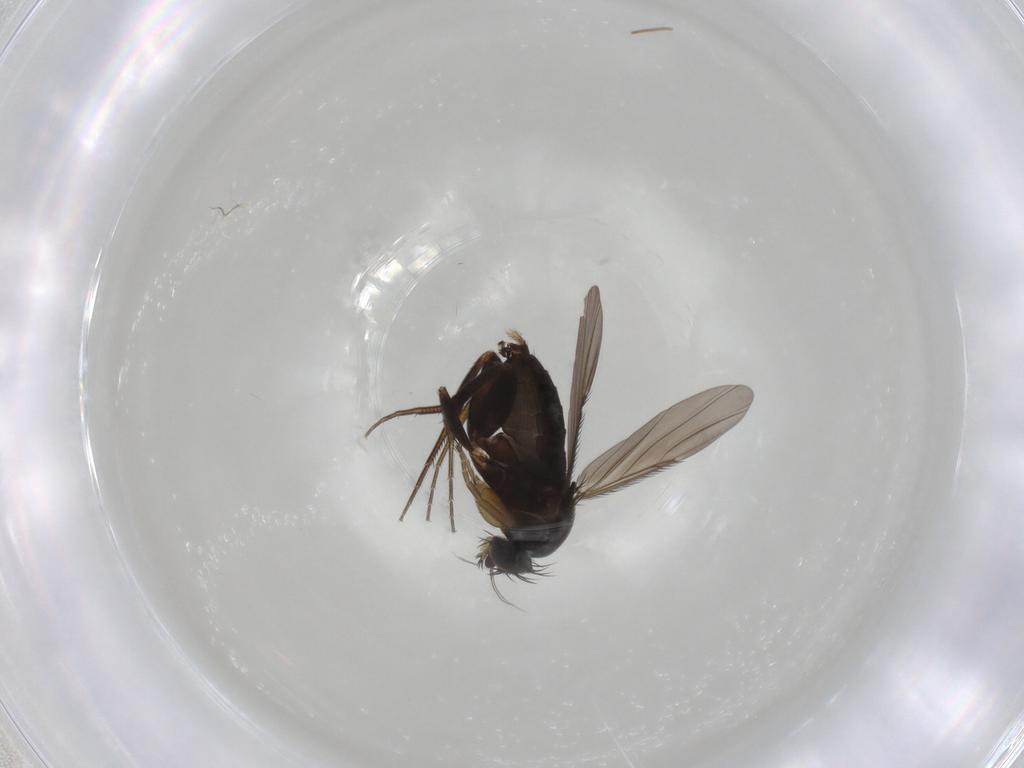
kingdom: Animalia
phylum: Arthropoda
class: Insecta
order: Diptera
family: Phoridae
